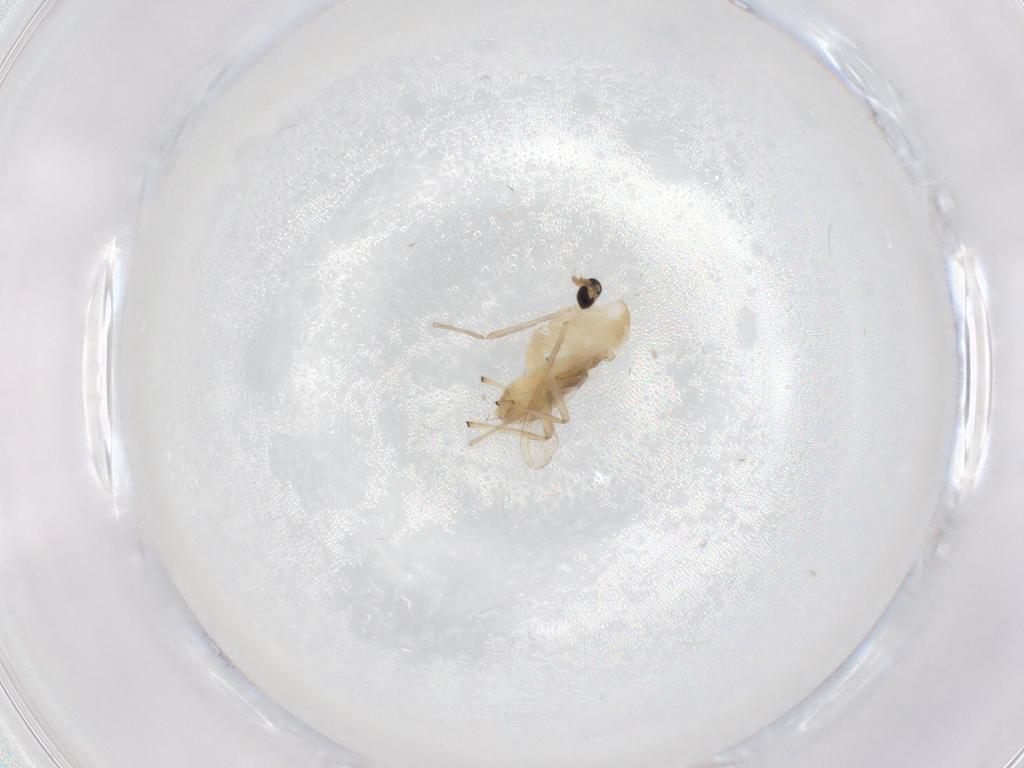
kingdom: Animalia
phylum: Arthropoda
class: Insecta
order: Diptera
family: Chironomidae
